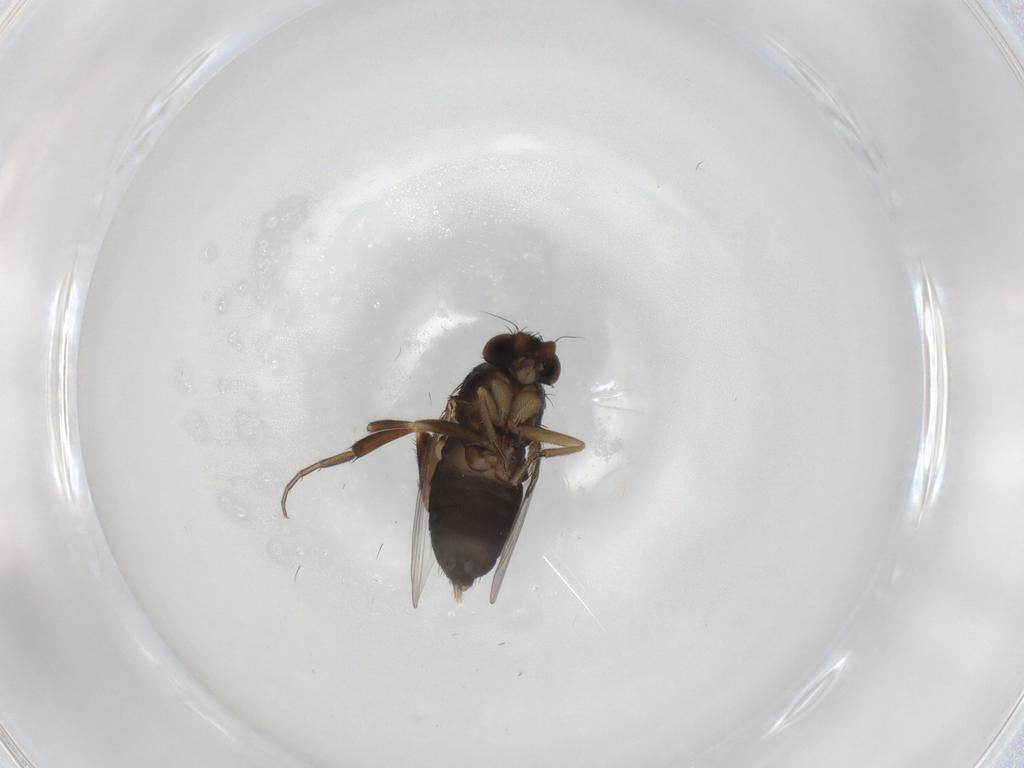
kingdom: Animalia
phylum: Arthropoda
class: Insecta
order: Diptera
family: Phoridae
